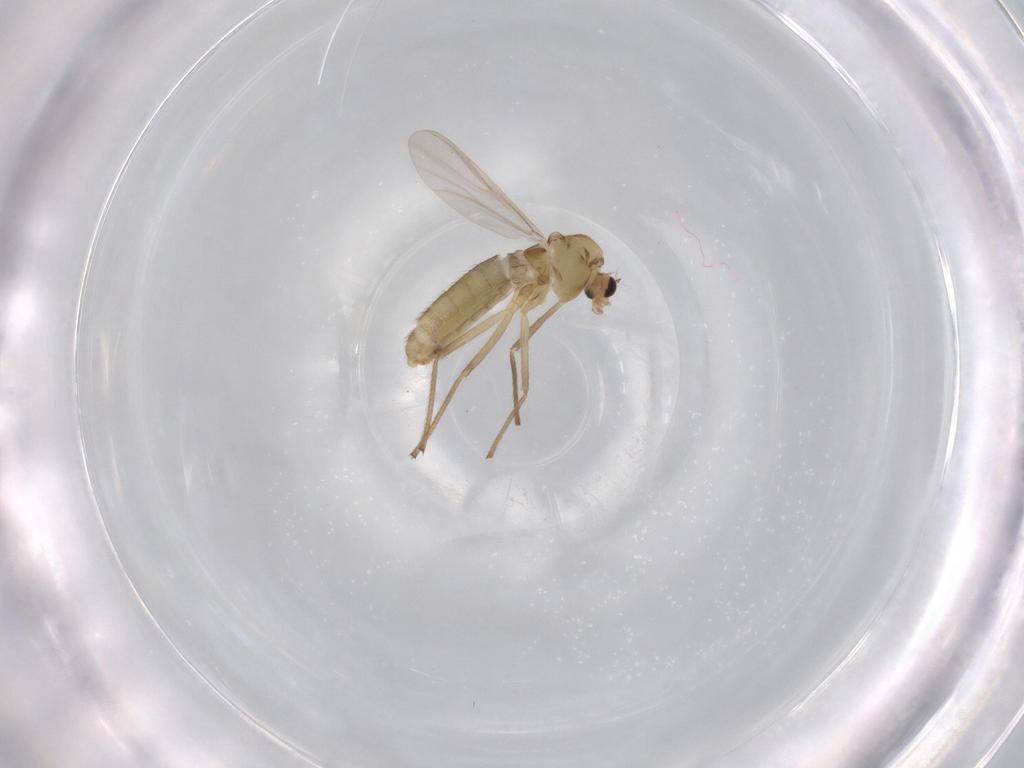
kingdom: Animalia
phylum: Arthropoda
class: Insecta
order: Diptera
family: Chironomidae
